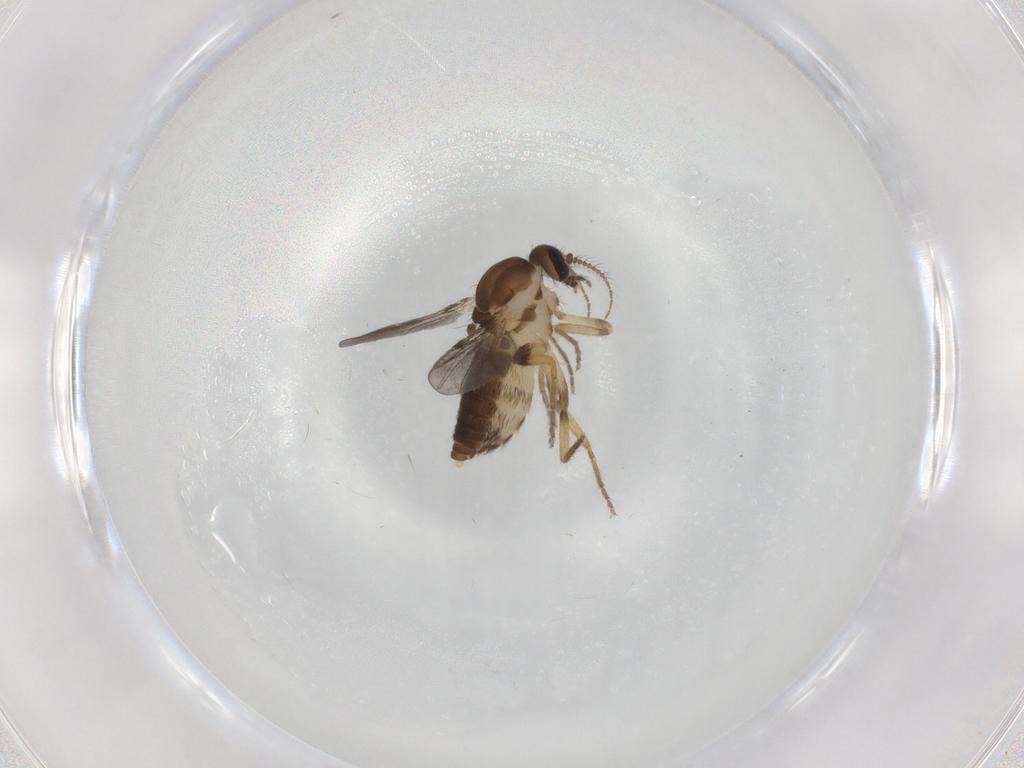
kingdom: Animalia
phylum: Arthropoda
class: Insecta
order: Diptera
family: Ceratopogonidae
